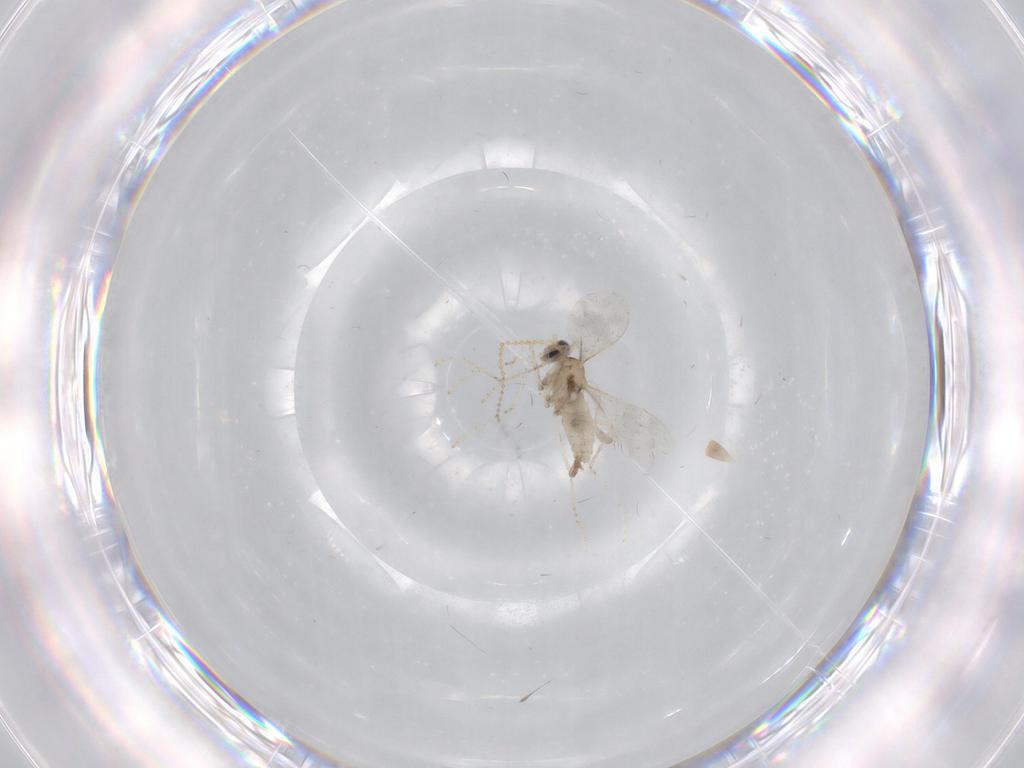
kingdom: Animalia
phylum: Arthropoda
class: Insecta
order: Diptera
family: Cecidomyiidae
